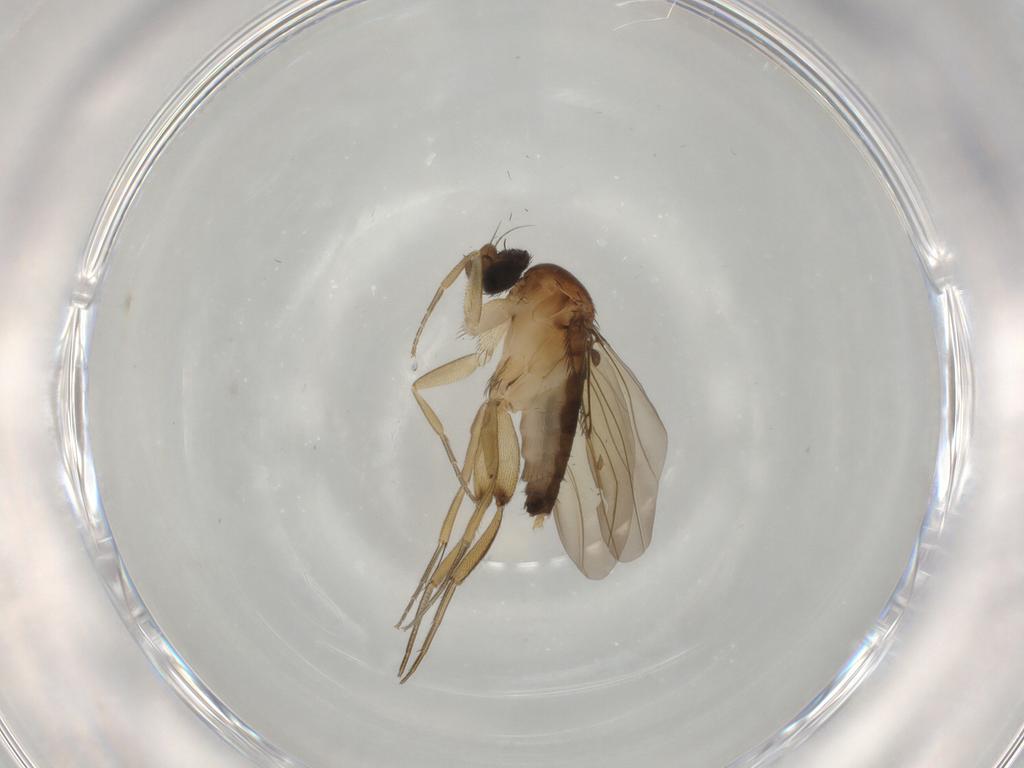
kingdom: Animalia
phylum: Arthropoda
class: Insecta
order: Diptera
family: Phoridae
